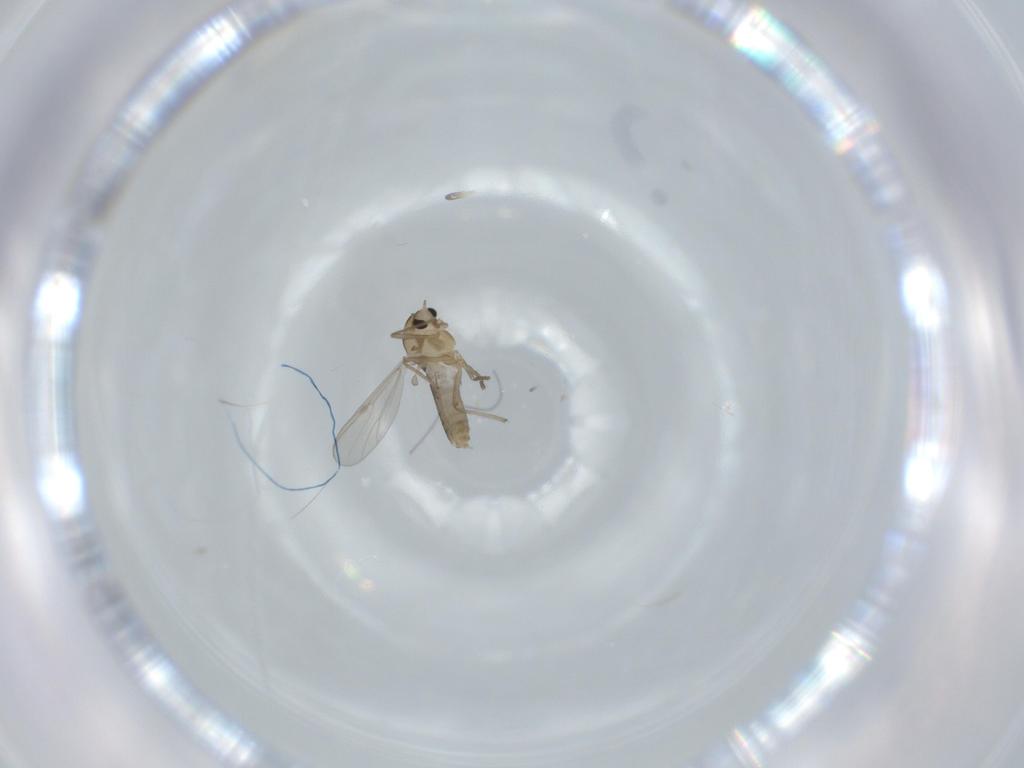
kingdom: Animalia
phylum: Arthropoda
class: Insecta
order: Diptera
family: Chironomidae
